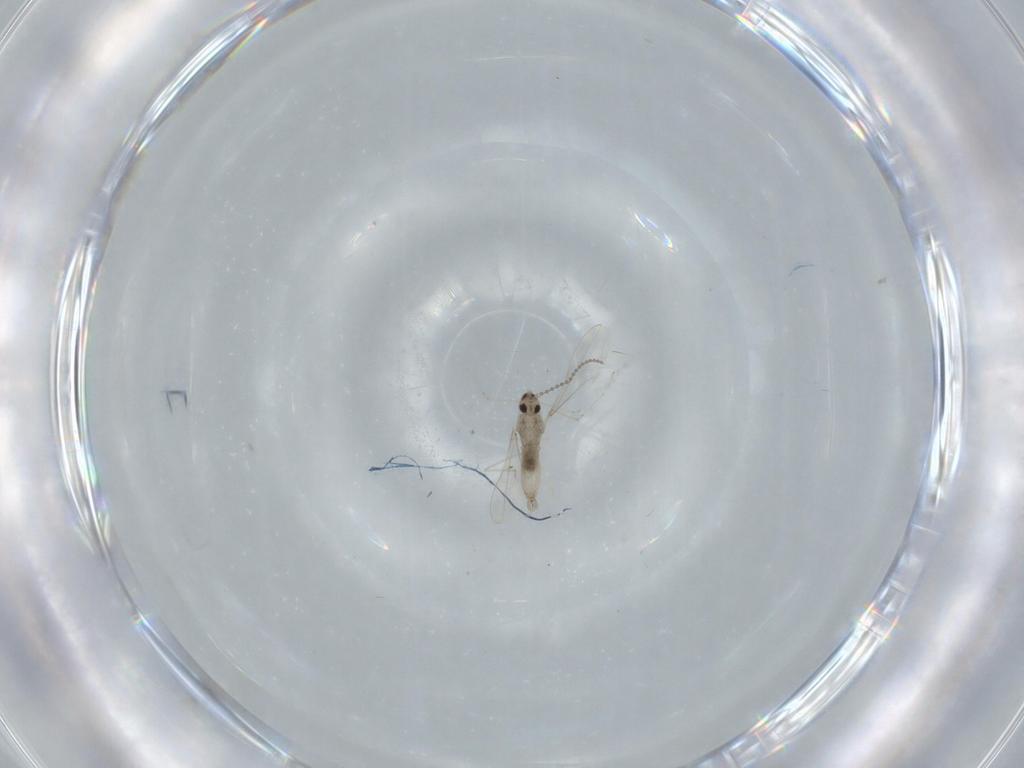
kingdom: Animalia
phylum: Arthropoda
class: Insecta
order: Diptera
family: Cecidomyiidae
